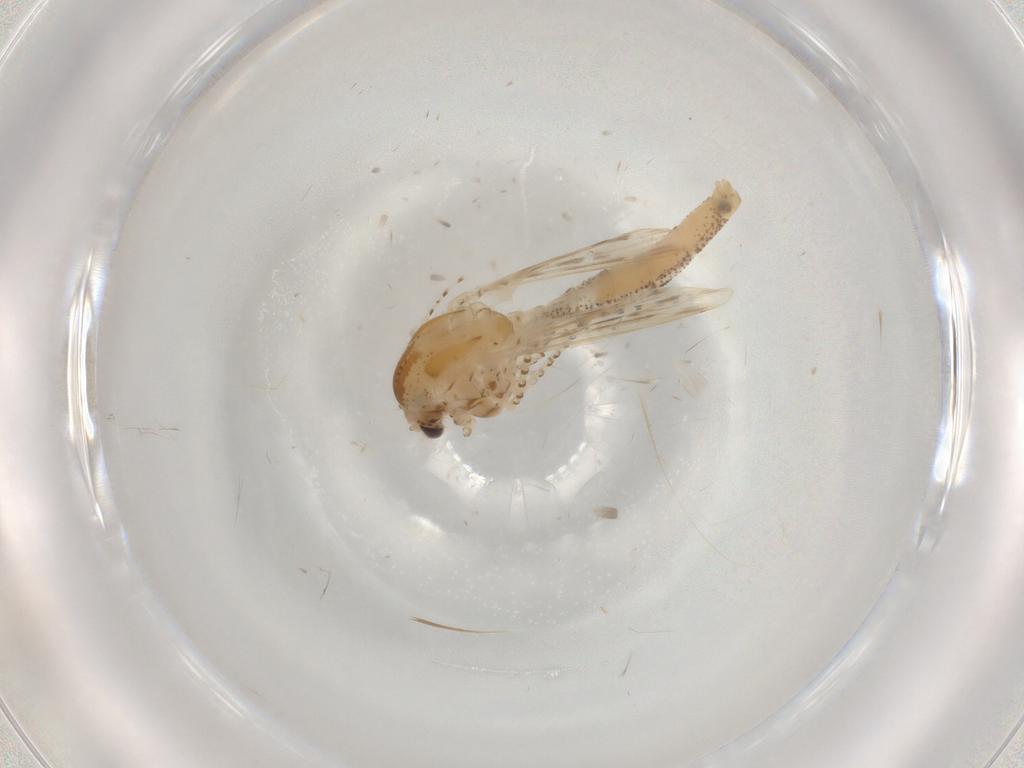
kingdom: Animalia
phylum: Arthropoda
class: Insecta
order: Diptera
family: Chaoboridae
